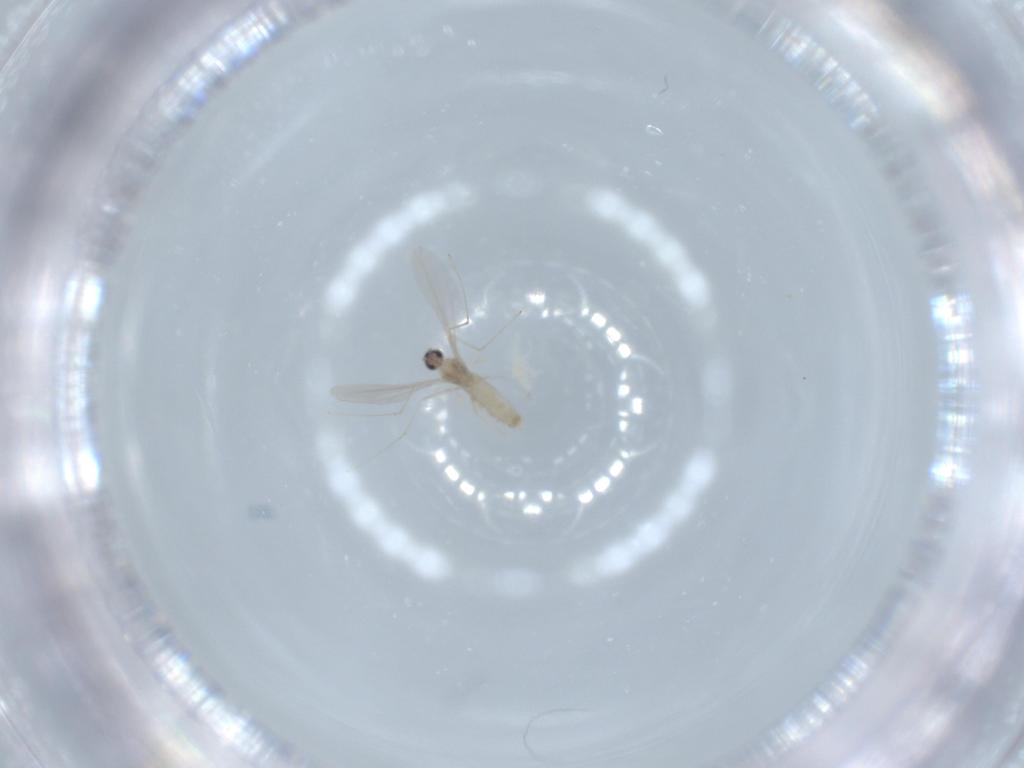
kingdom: Animalia
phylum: Arthropoda
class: Insecta
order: Diptera
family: Cecidomyiidae
